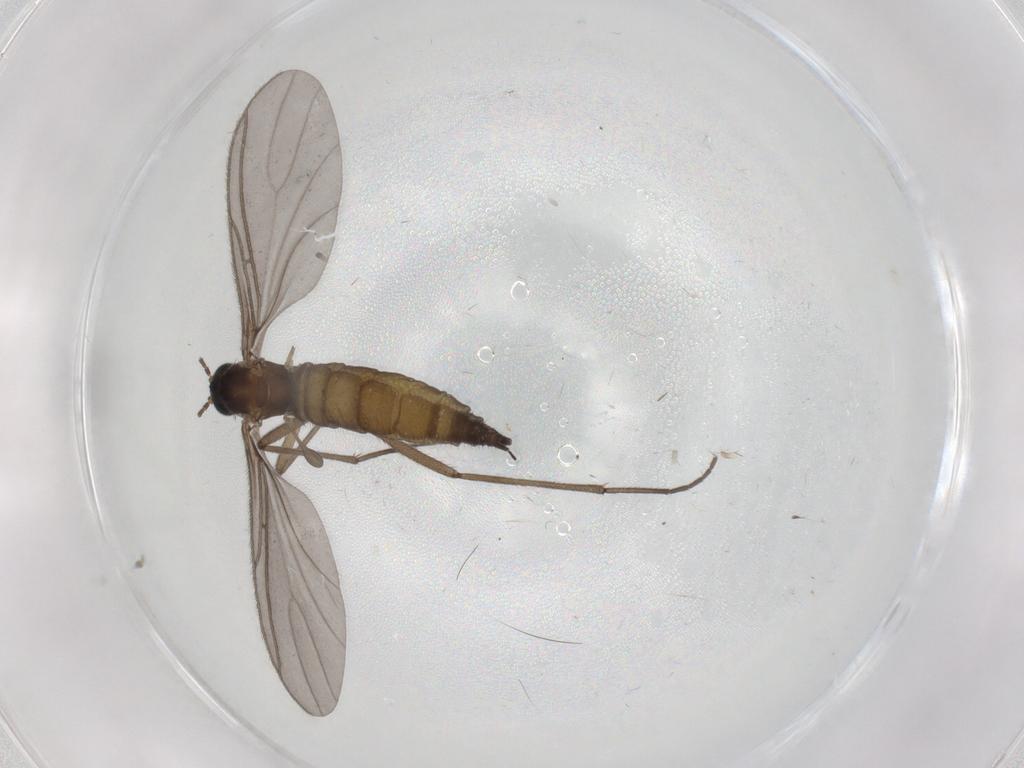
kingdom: Animalia
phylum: Arthropoda
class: Insecta
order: Diptera
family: Sciaridae
